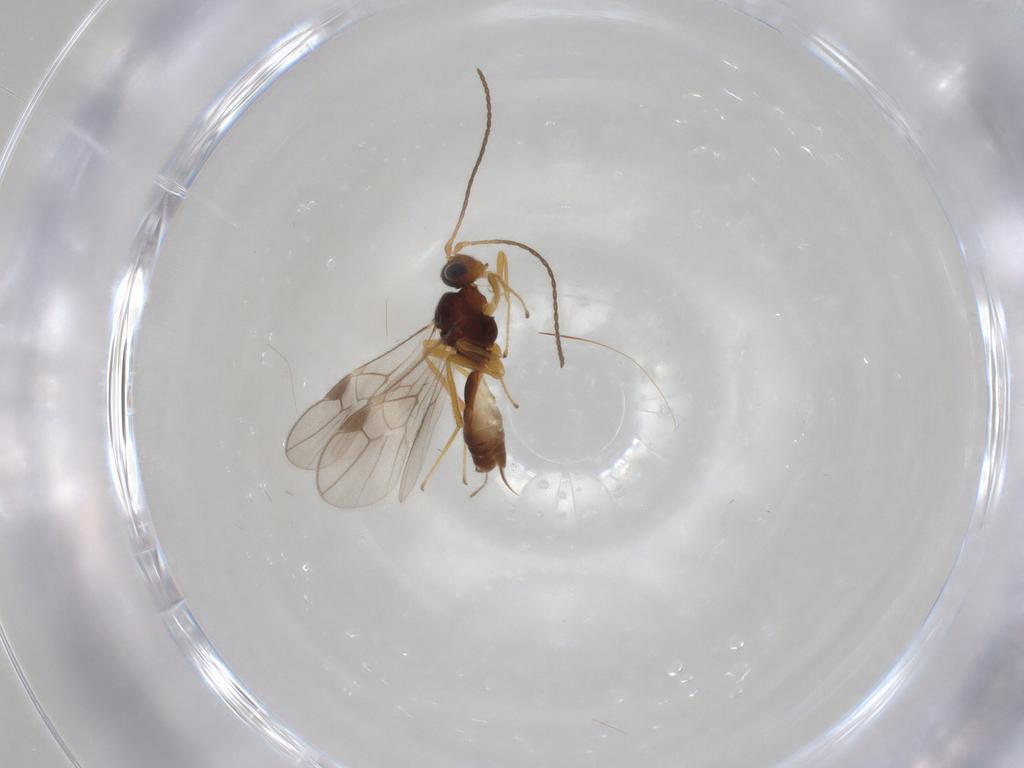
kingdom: Animalia
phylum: Arthropoda
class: Insecta
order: Hymenoptera
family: Braconidae
